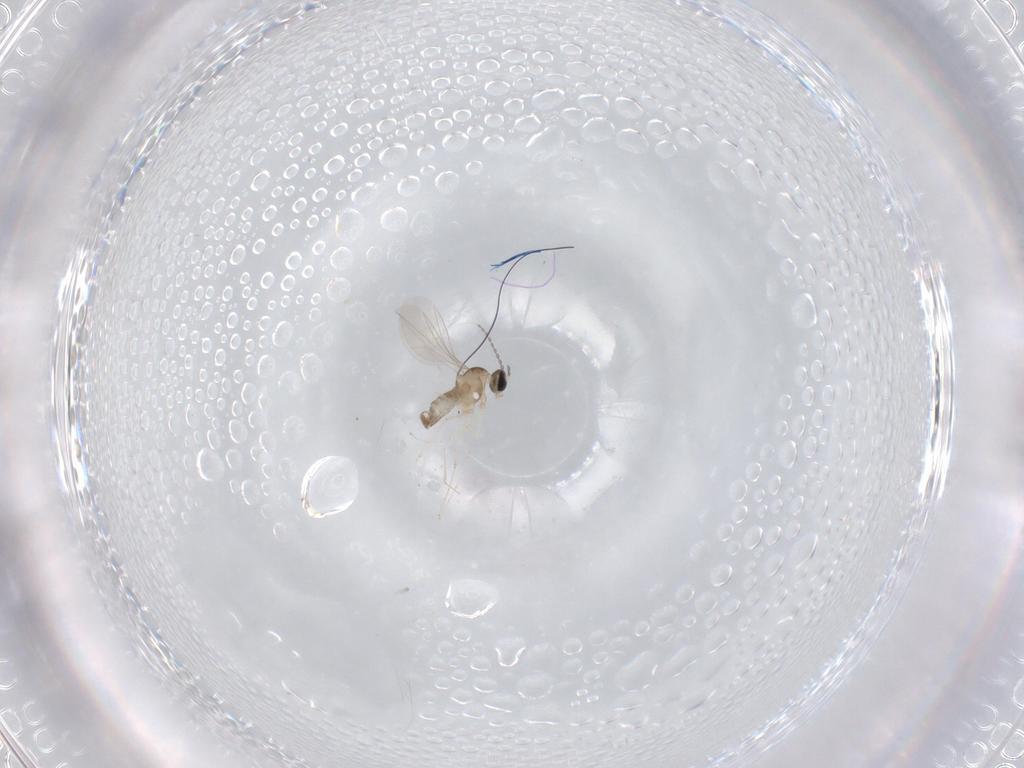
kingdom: Animalia
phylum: Arthropoda
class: Insecta
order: Diptera
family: Cecidomyiidae
